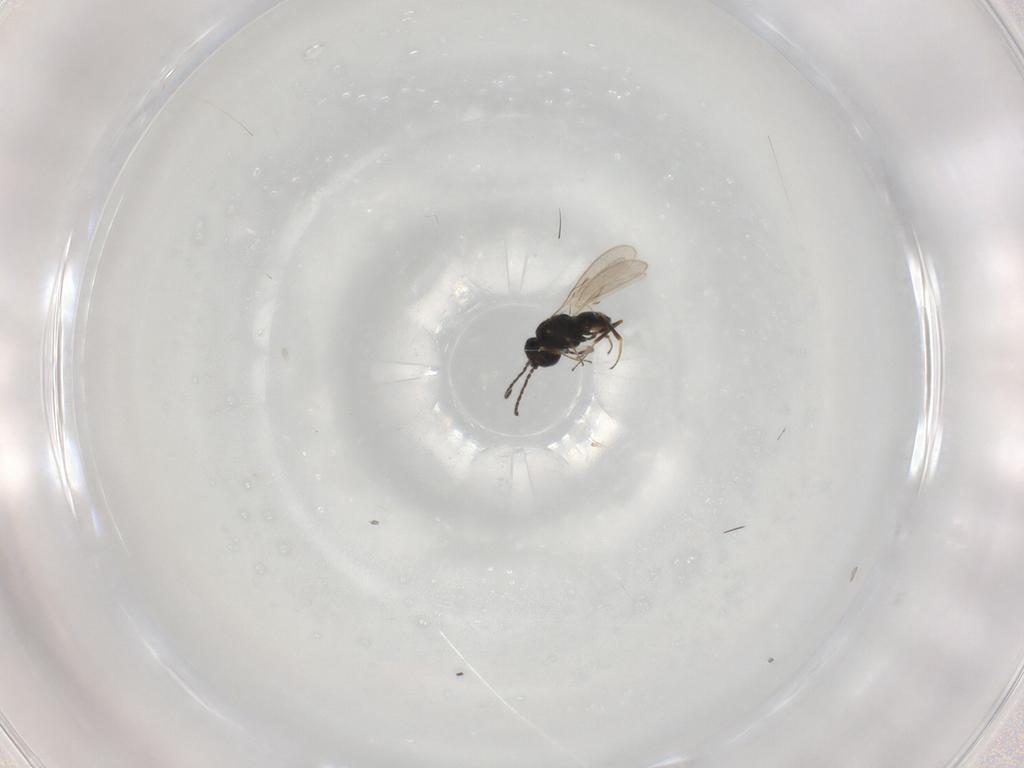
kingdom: Animalia
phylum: Arthropoda
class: Insecta
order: Hymenoptera
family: Scelionidae
